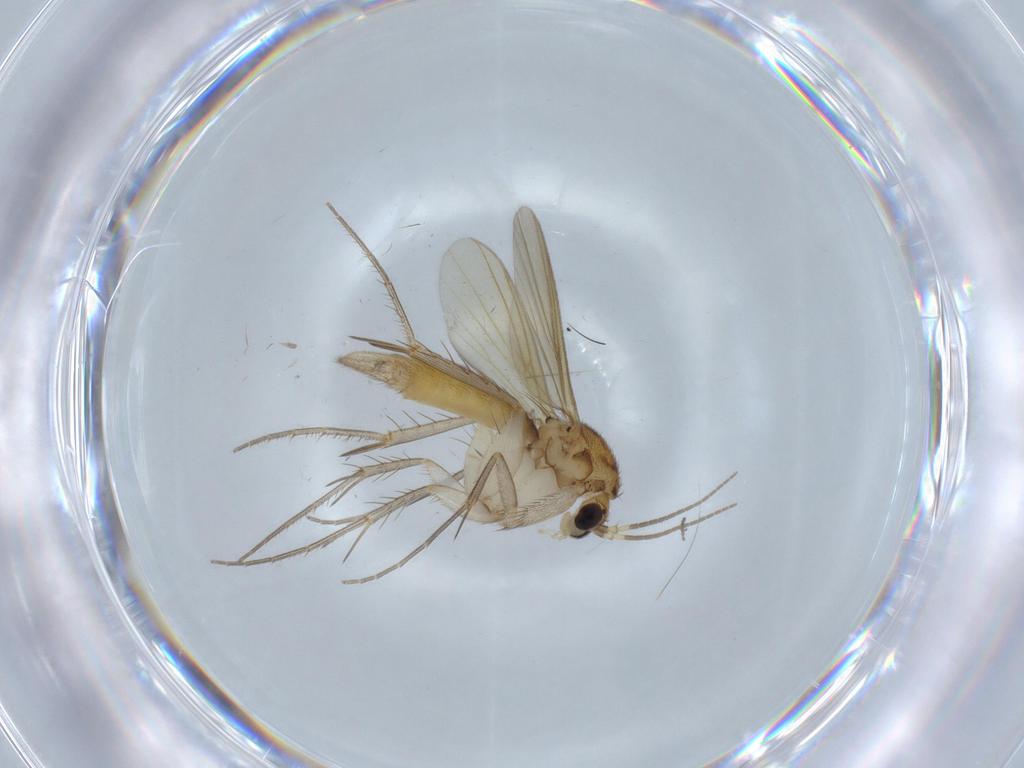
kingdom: Animalia
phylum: Arthropoda
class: Insecta
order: Diptera
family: Mycetophilidae
